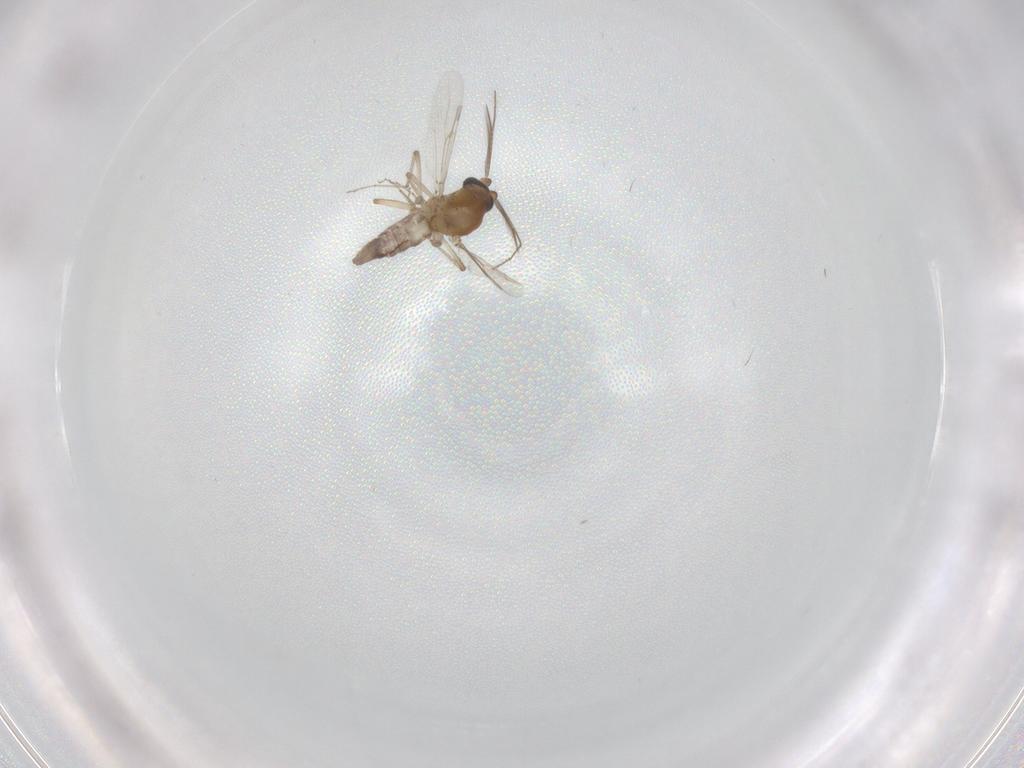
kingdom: Animalia
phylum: Arthropoda
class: Insecta
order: Diptera
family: Ceratopogonidae
